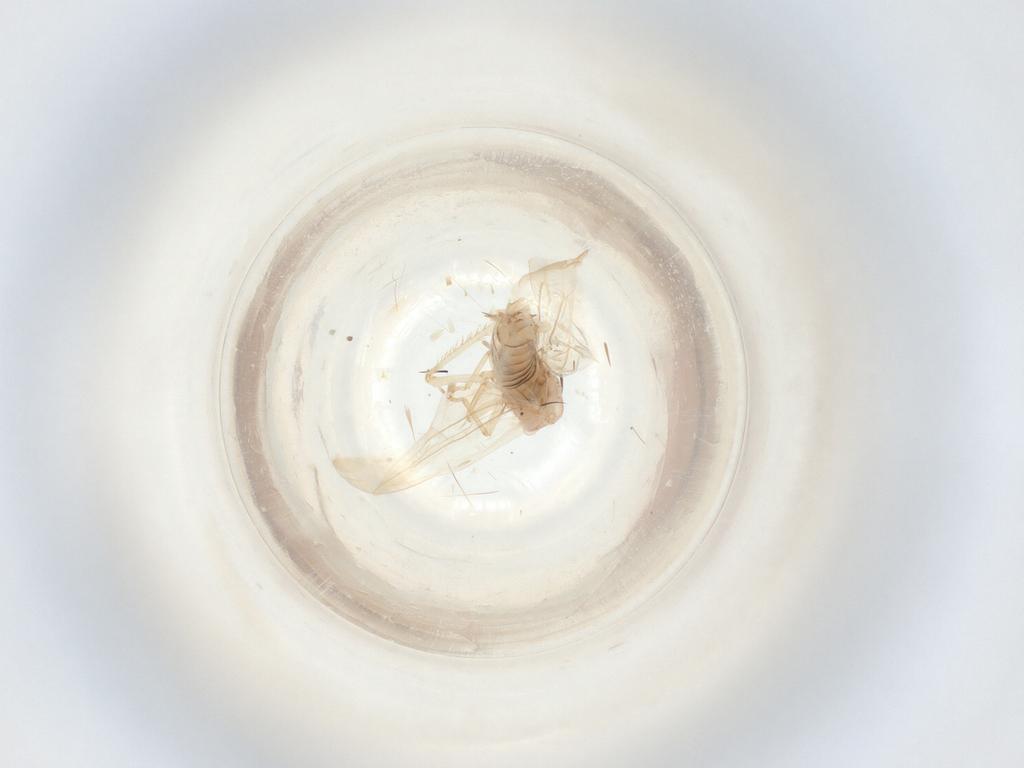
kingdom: Animalia
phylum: Arthropoda
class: Insecta
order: Hemiptera
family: Cicadellidae
